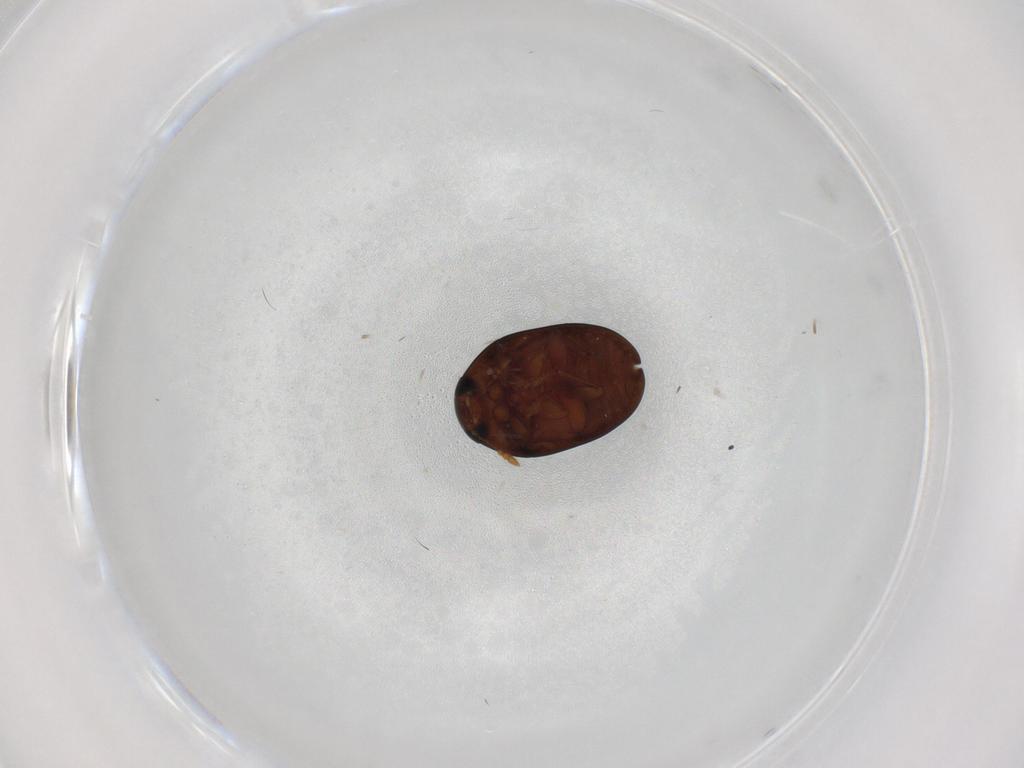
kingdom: Animalia
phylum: Arthropoda
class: Insecta
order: Coleoptera
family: Phalacridae
